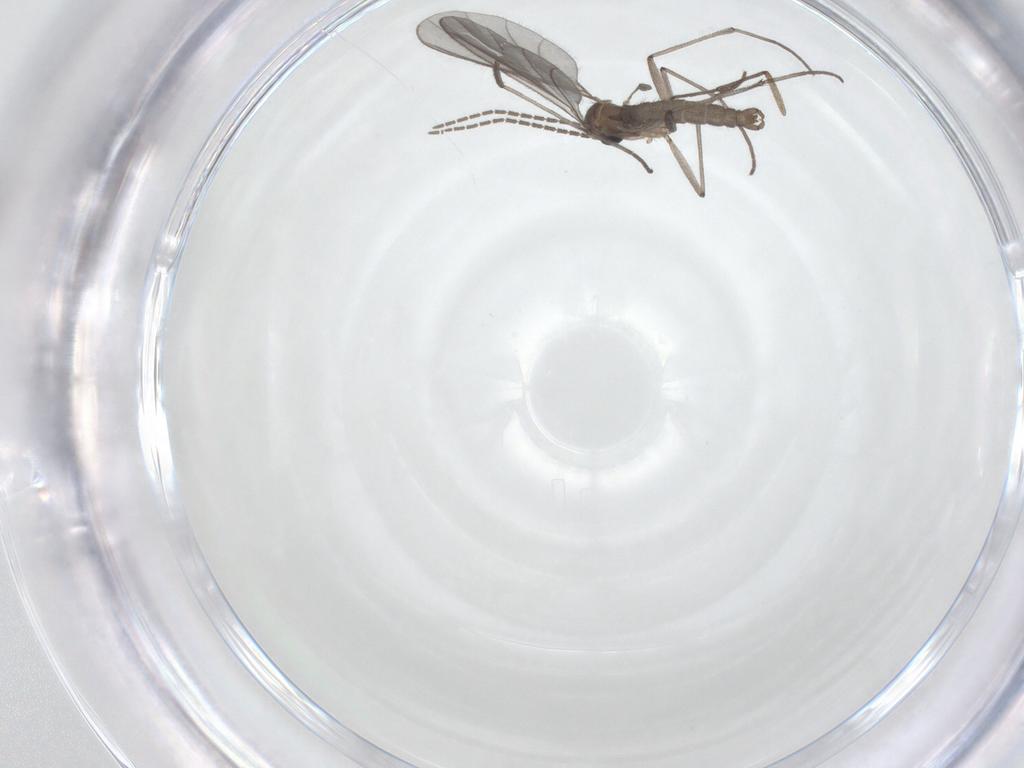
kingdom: Animalia
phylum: Arthropoda
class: Insecta
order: Diptera
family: Sciaridae
